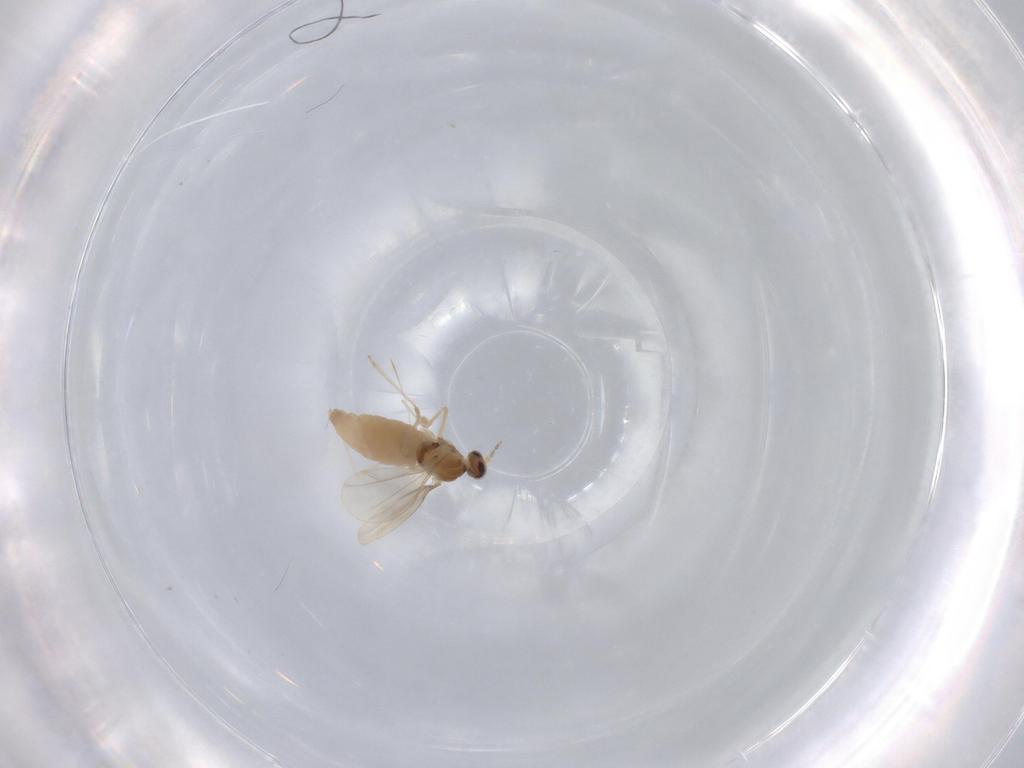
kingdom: Animalia
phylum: Arthropoda
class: Insecta
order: Diptera
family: Cecidomyiidae
